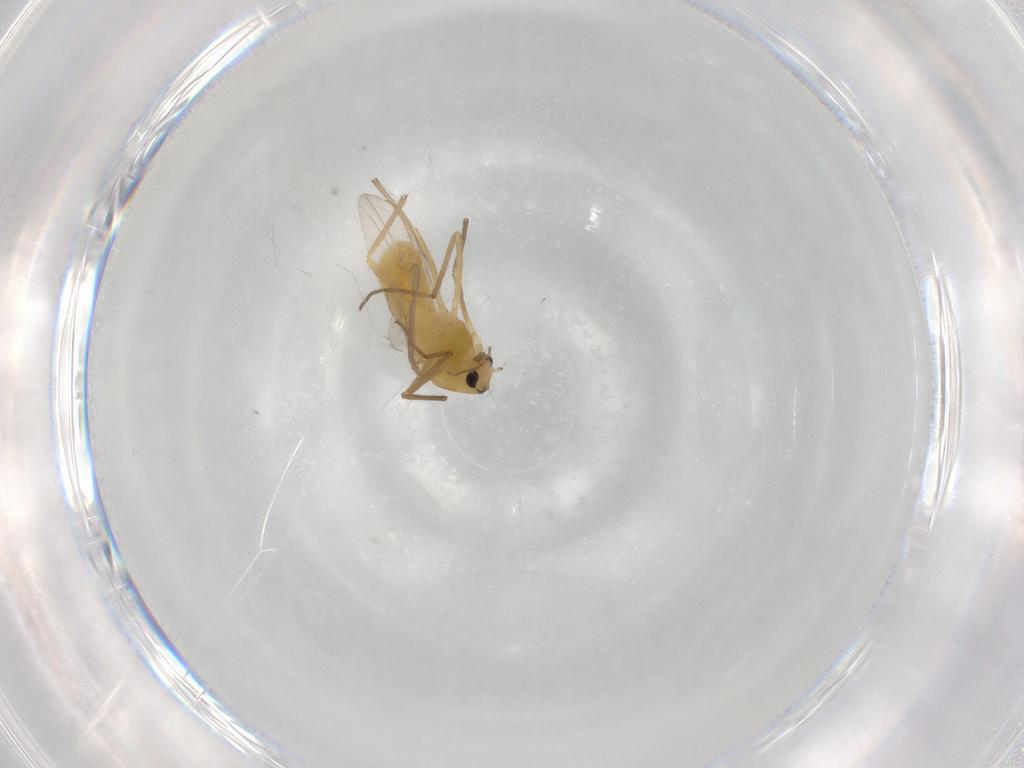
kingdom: Animalia
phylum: Arthropoda
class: Insecta
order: Diptera
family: Chironomidae
